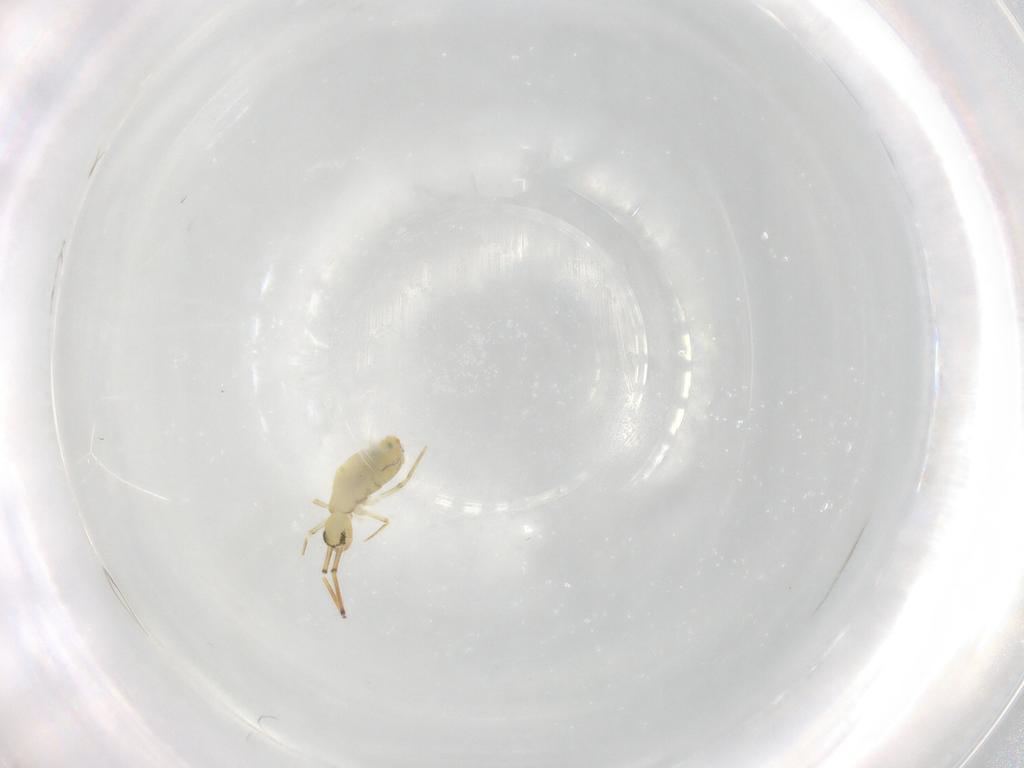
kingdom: Animalia
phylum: Arthropoda
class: Collembola
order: Entomobryomorpha
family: Entomobryidae
